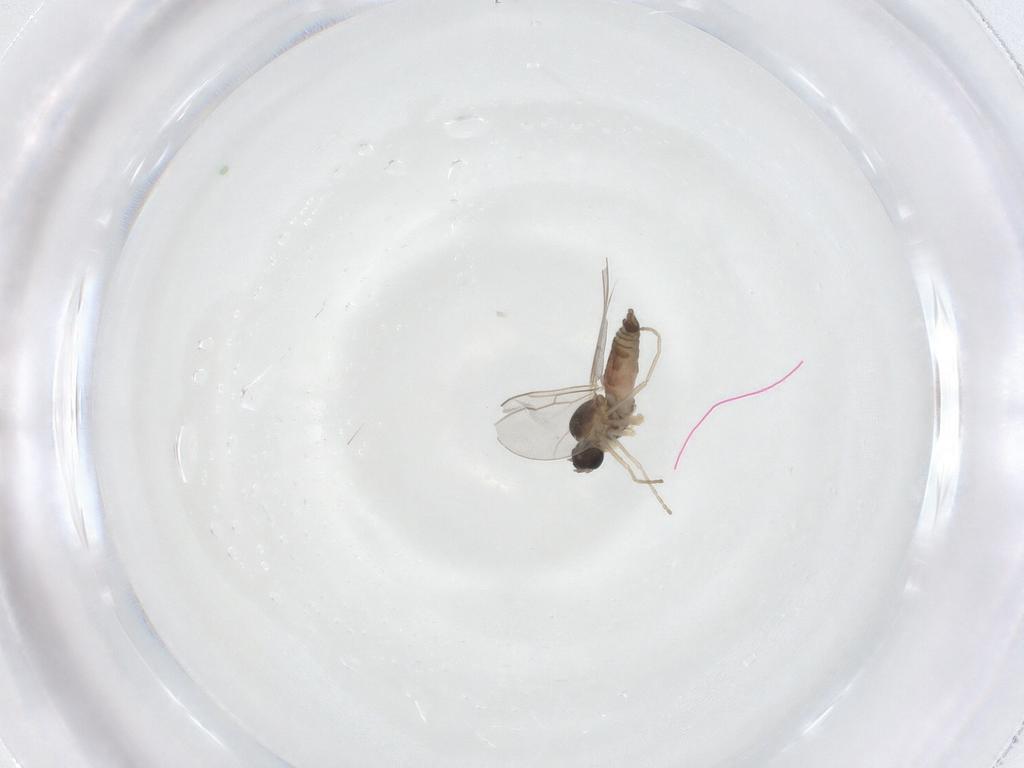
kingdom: Animalia
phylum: Arthropoda
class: Insecta
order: Diptera
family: Cecidomyiidae
